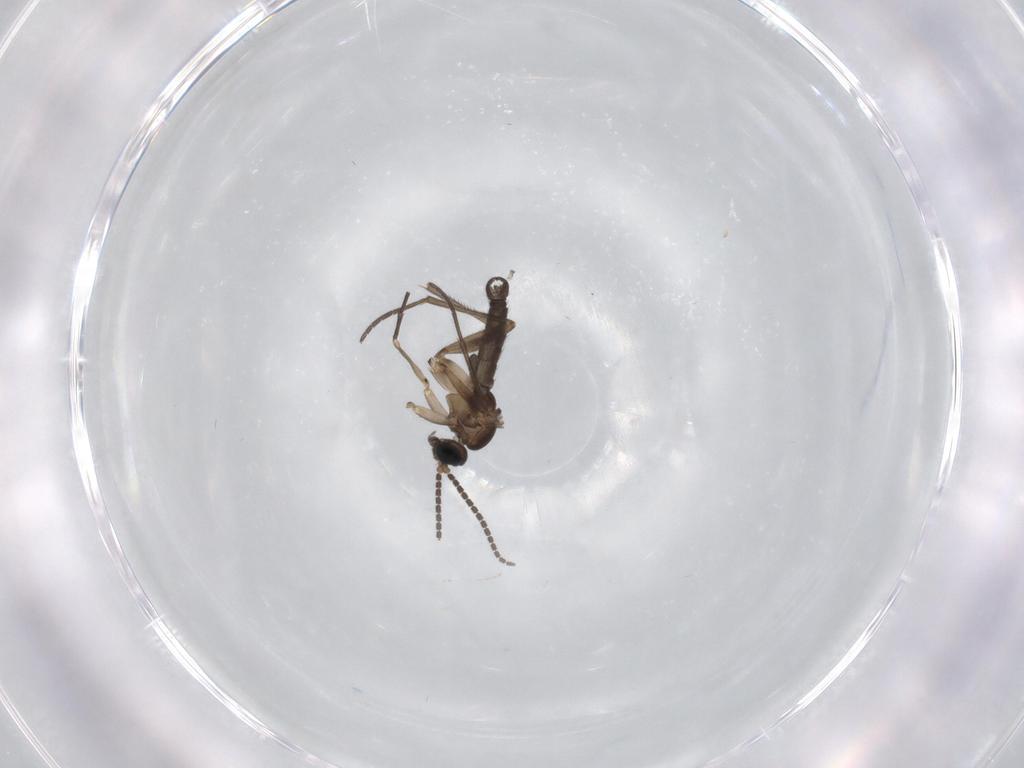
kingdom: Animalia
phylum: Arthropoda
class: Insecta
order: Diptera
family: Sciaridae
